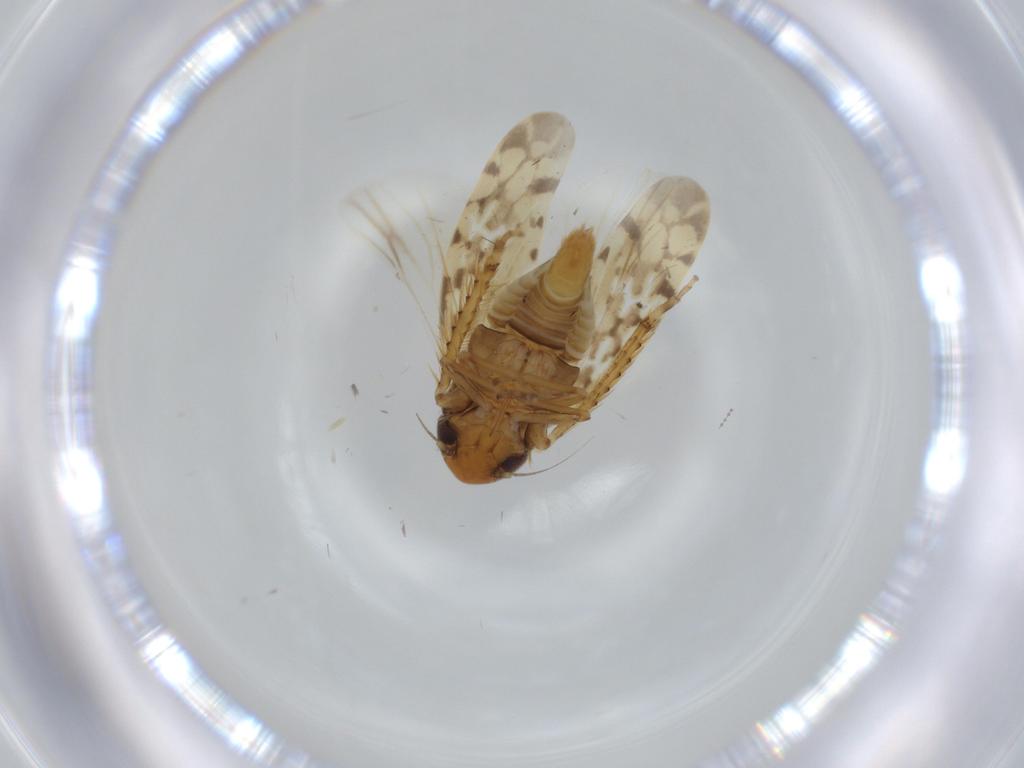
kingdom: Animalia
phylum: Arthropoda
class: Insecta
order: Hemiptera
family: Cicadellidae
